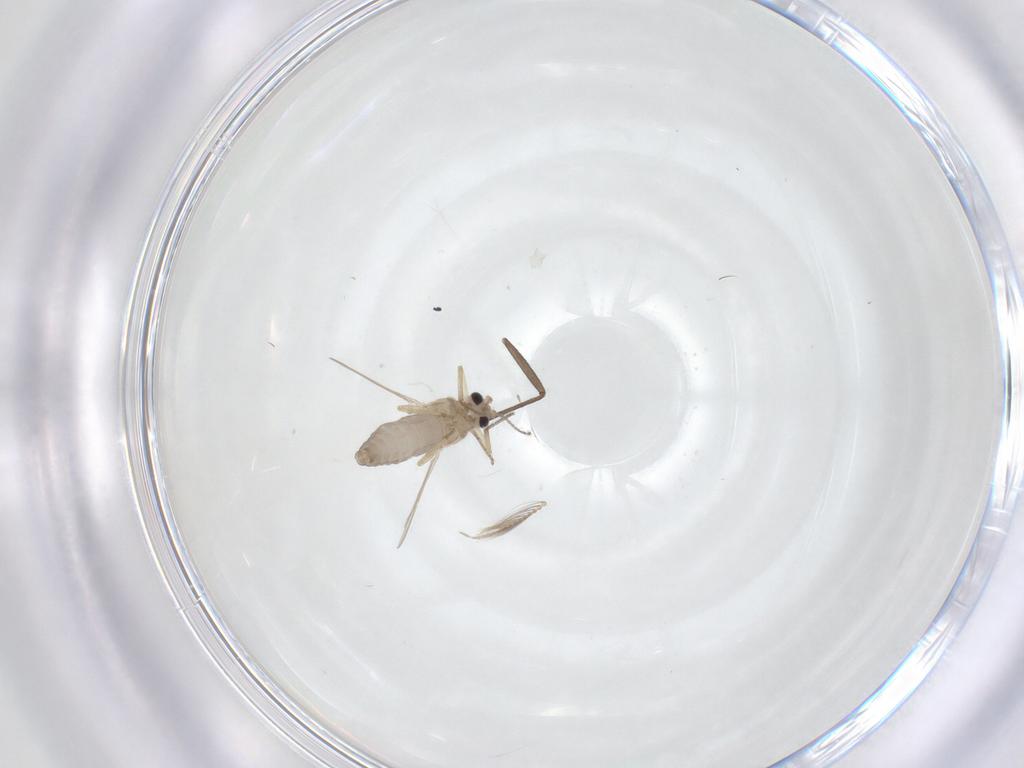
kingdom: Animalia
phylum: Arthropoda
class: Insecta
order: Diptera
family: Ceratopogonidae
